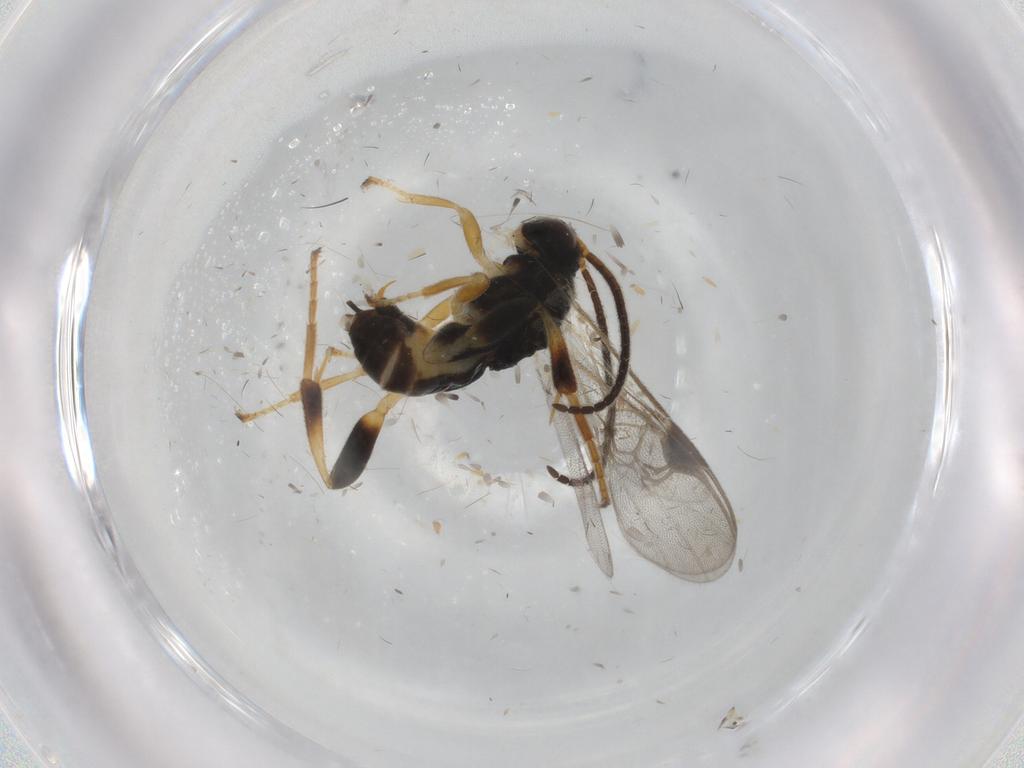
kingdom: Animalia
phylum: Arthropoda
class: Insecta
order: Hymenoptera
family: Braconidae
